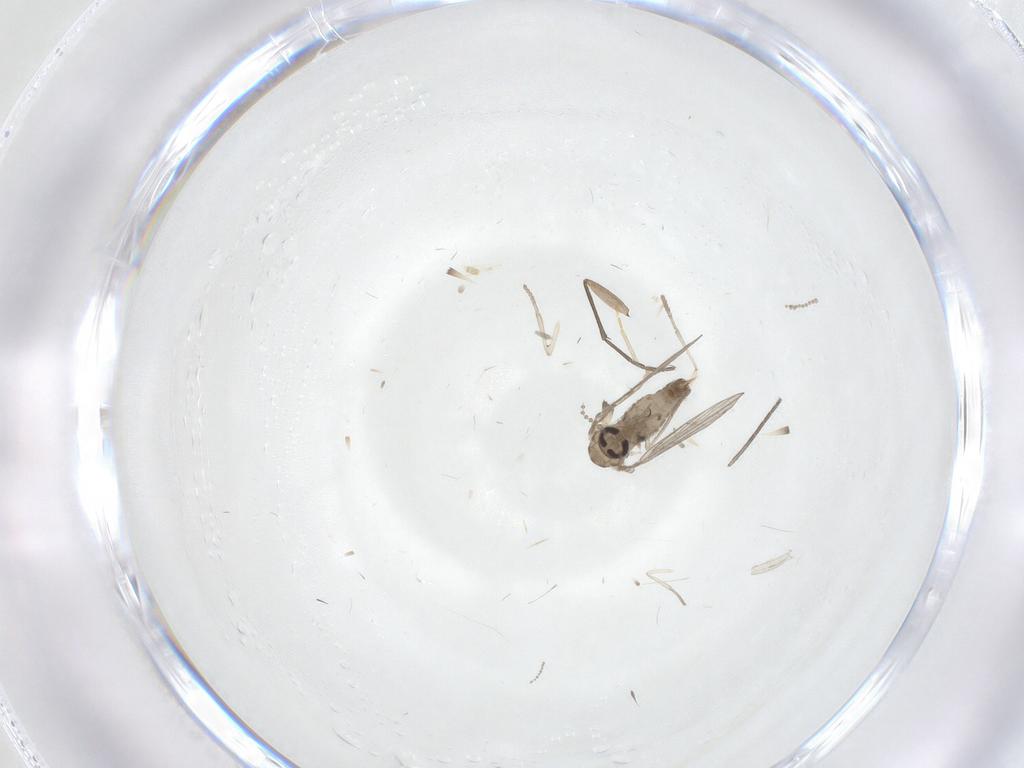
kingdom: Animalia
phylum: Arthropoda
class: Insecta
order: Diptera
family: Psychodidae
